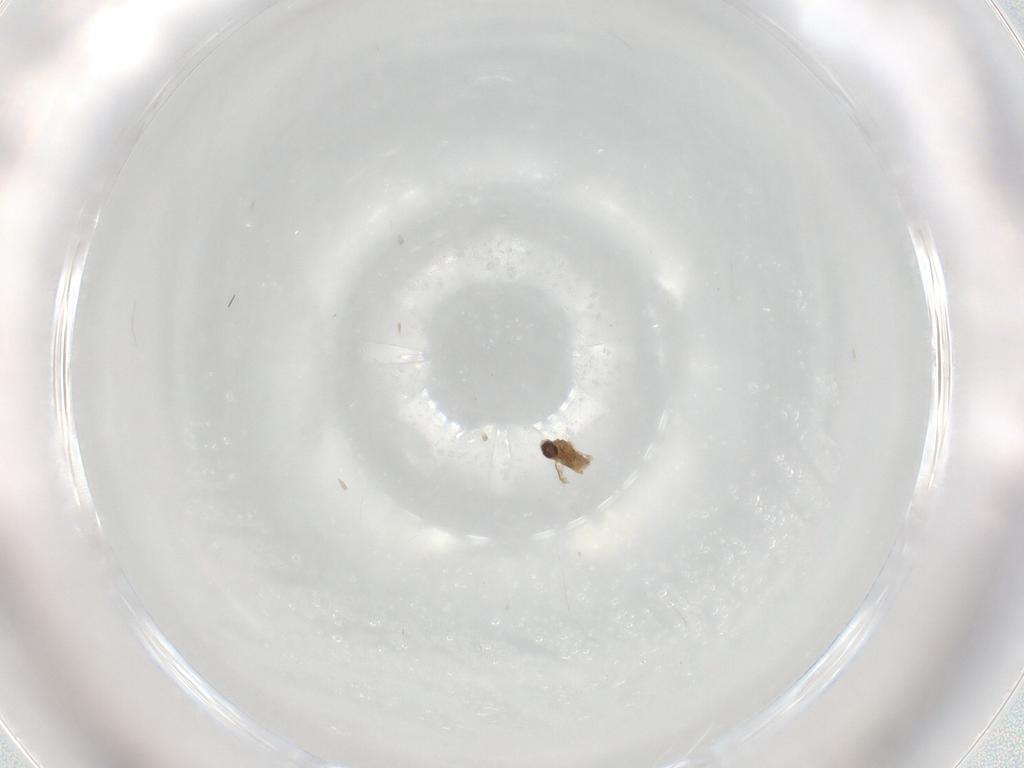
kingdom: Animalia
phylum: Arthropoda
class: Insecta
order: Diptera
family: Cecidomyiidae
